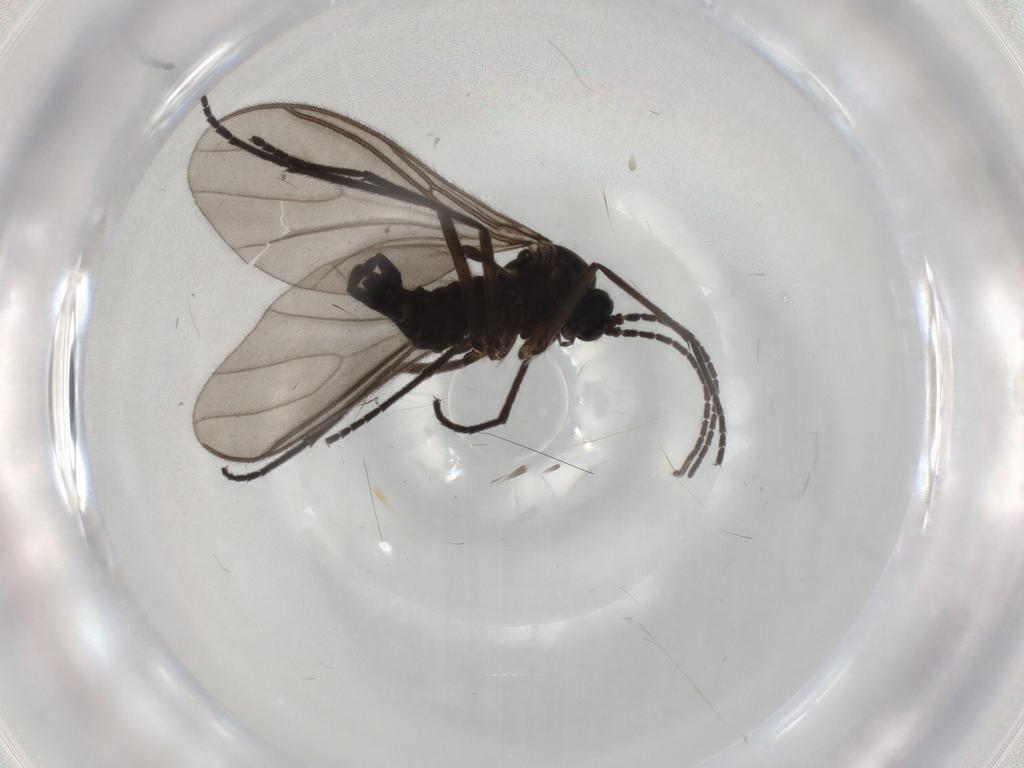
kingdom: Animalia
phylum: Arthropoda
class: Insecta
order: Diptera
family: Sciaridae
